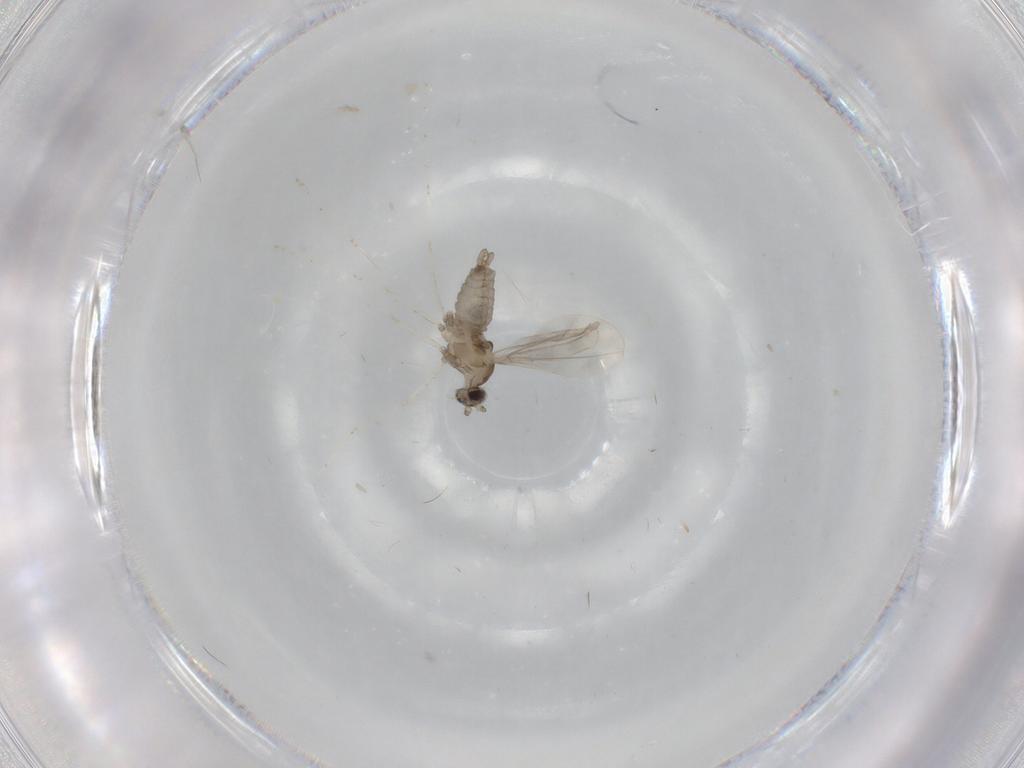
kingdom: Animalia
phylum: Arthropoda
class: Insecta
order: Diptera
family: Cecidomyiidae
